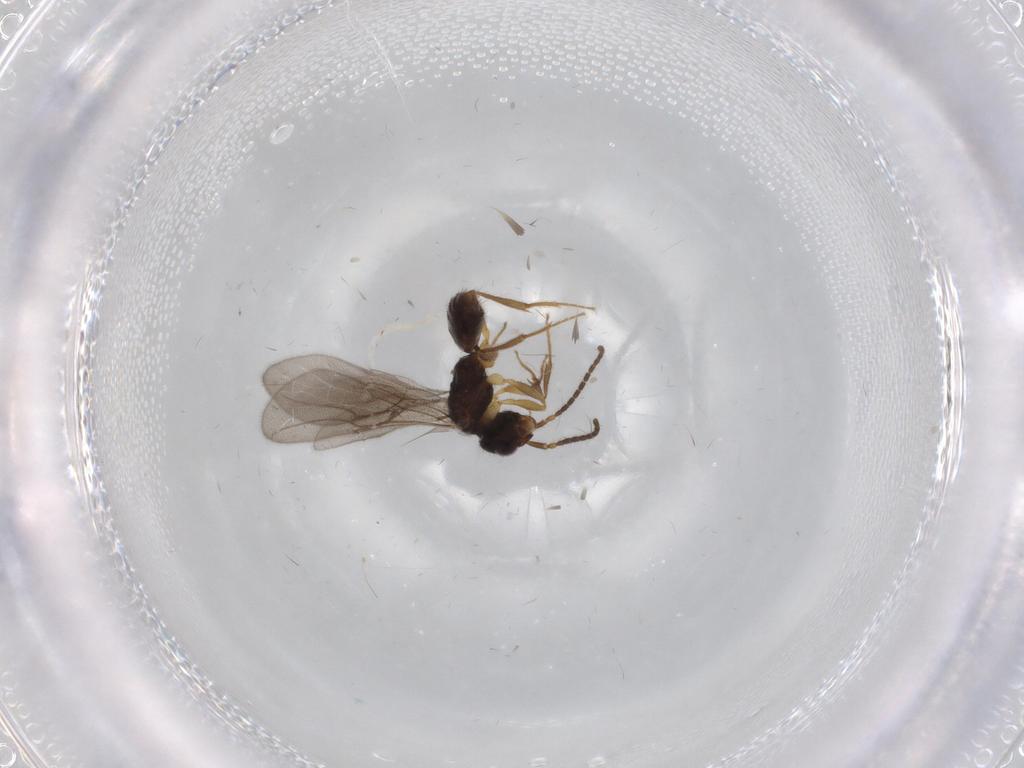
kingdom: Animalia
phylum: Arthropoda
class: Insecta
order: Hymenoptera
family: Bethylidae
